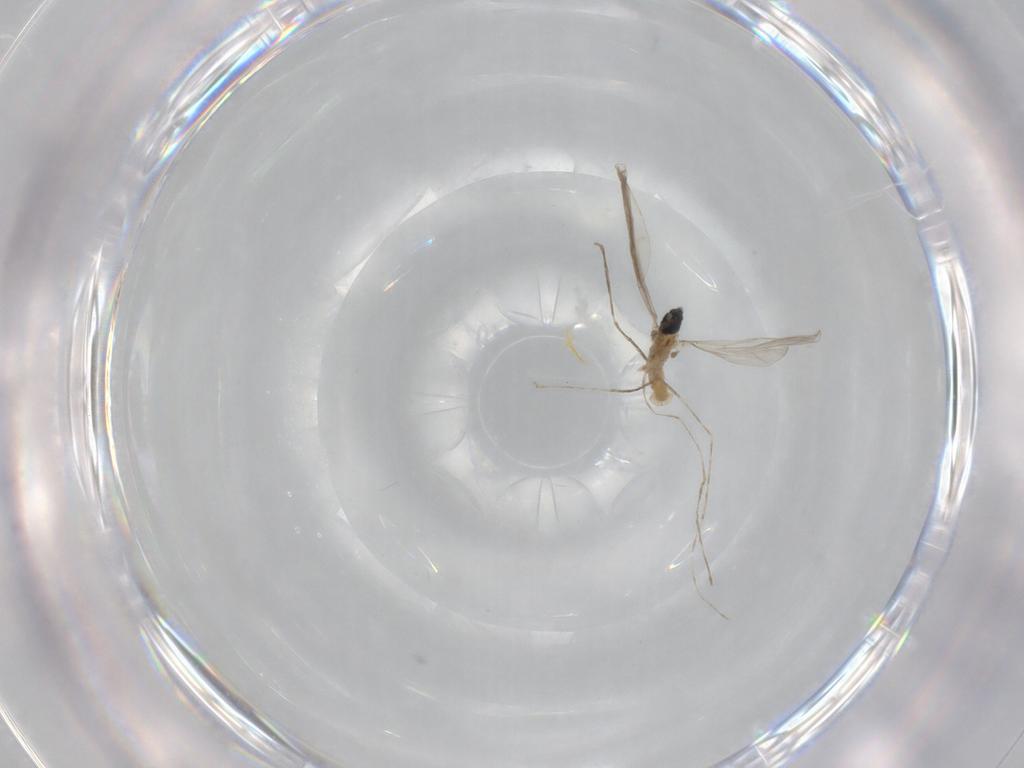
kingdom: Animalia
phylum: Arthropoda
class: Insecta
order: Diptera
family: Cecidomyiidae
